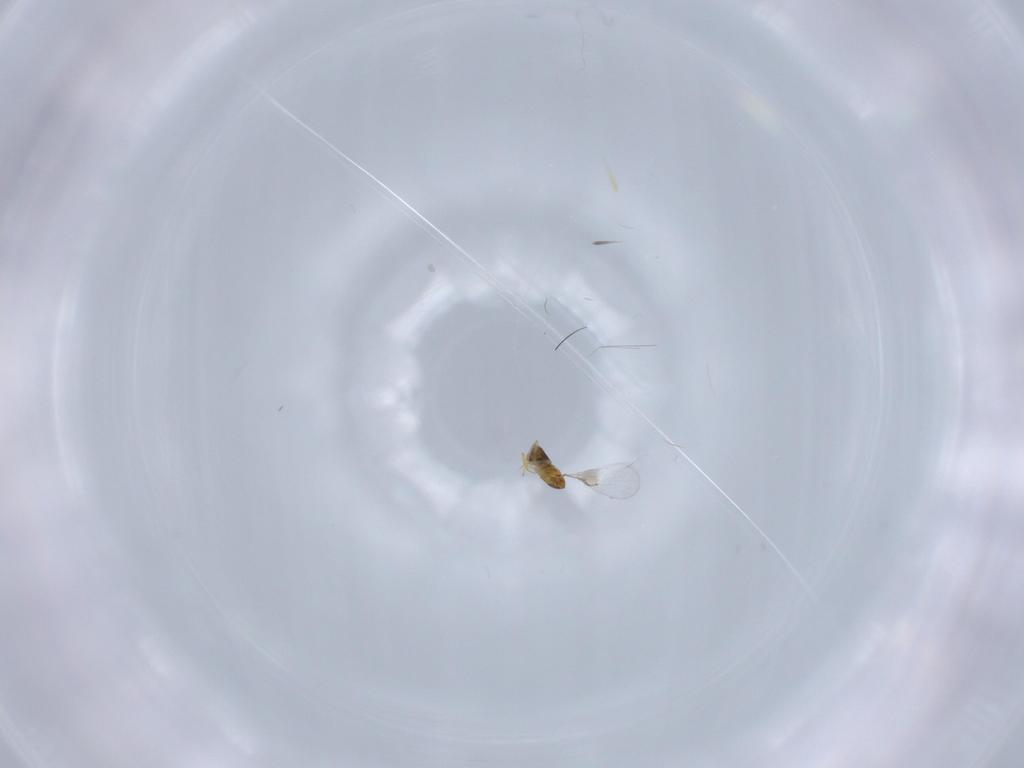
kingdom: Animalia
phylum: Arthropoda
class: Insecta
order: Hymenoptera
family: Trichogrammatidae
